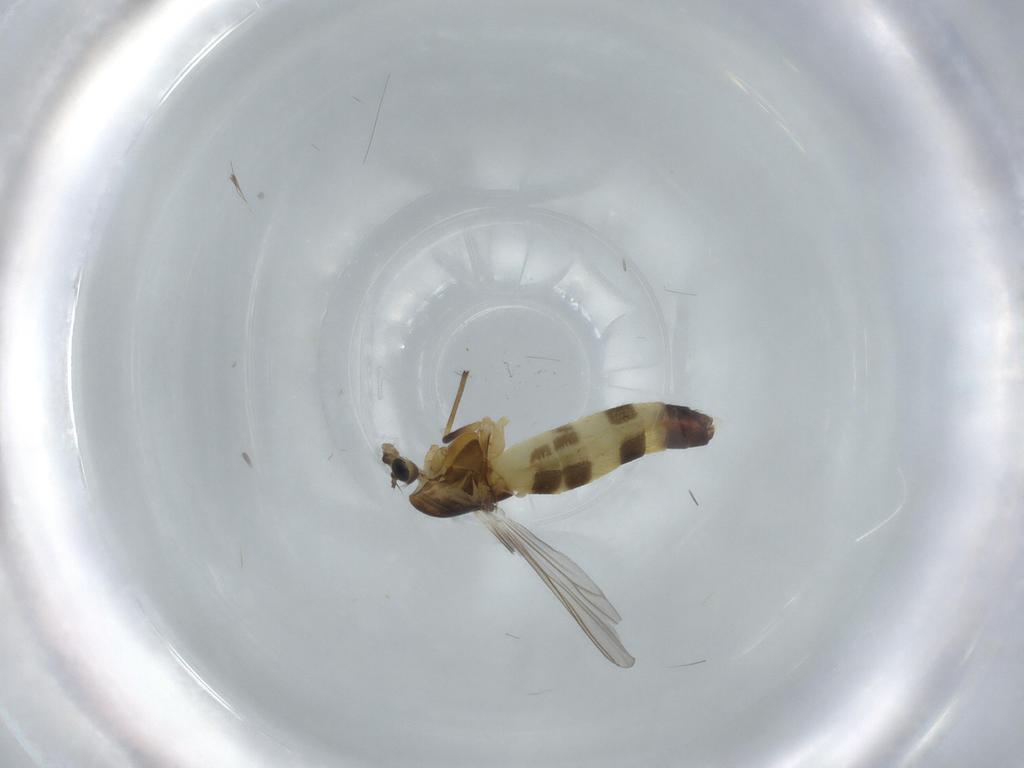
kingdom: Animalia
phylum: Arthropoda
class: Insecta
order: Diptera
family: Chironomidae
